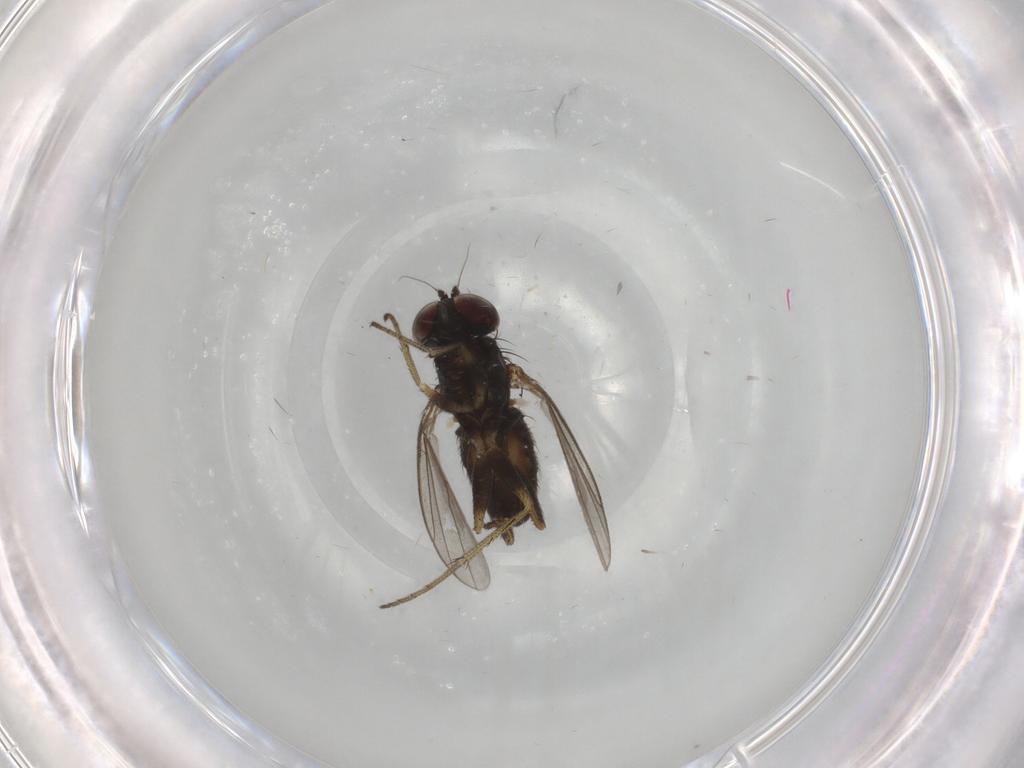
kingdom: Animalia
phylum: Arthropoda
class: Insecta
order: Diptera
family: Dolichopodidae
